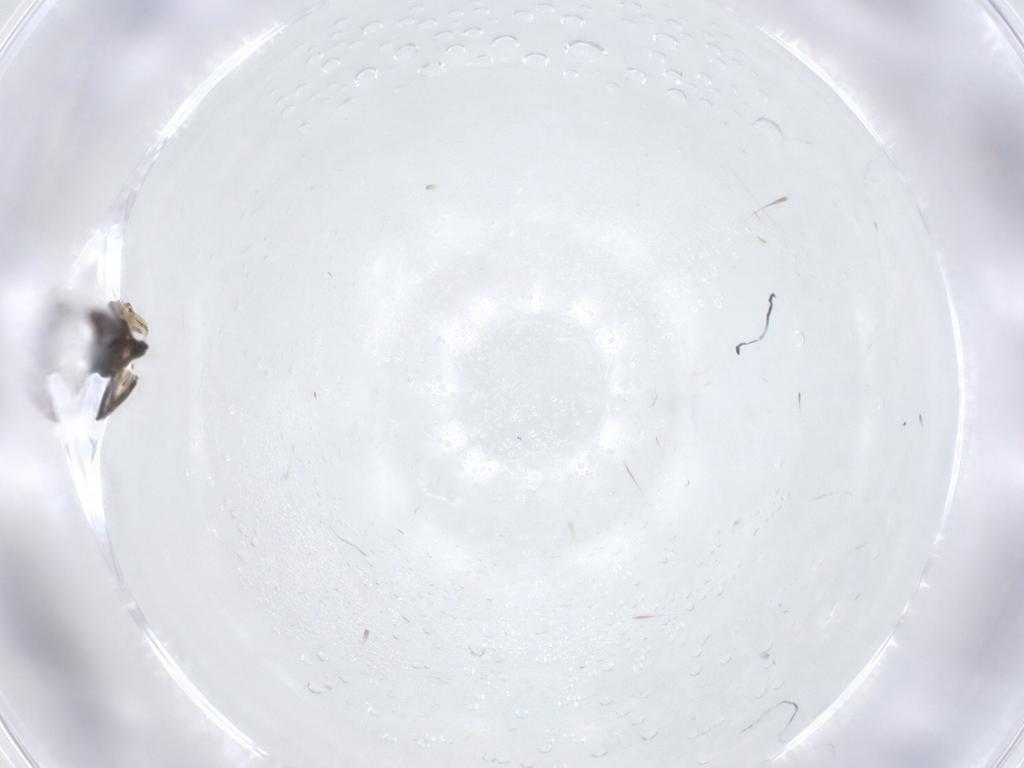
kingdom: Animalia
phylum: Arthropoda
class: Insecta
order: Neuroptera
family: Hemerobiidae
